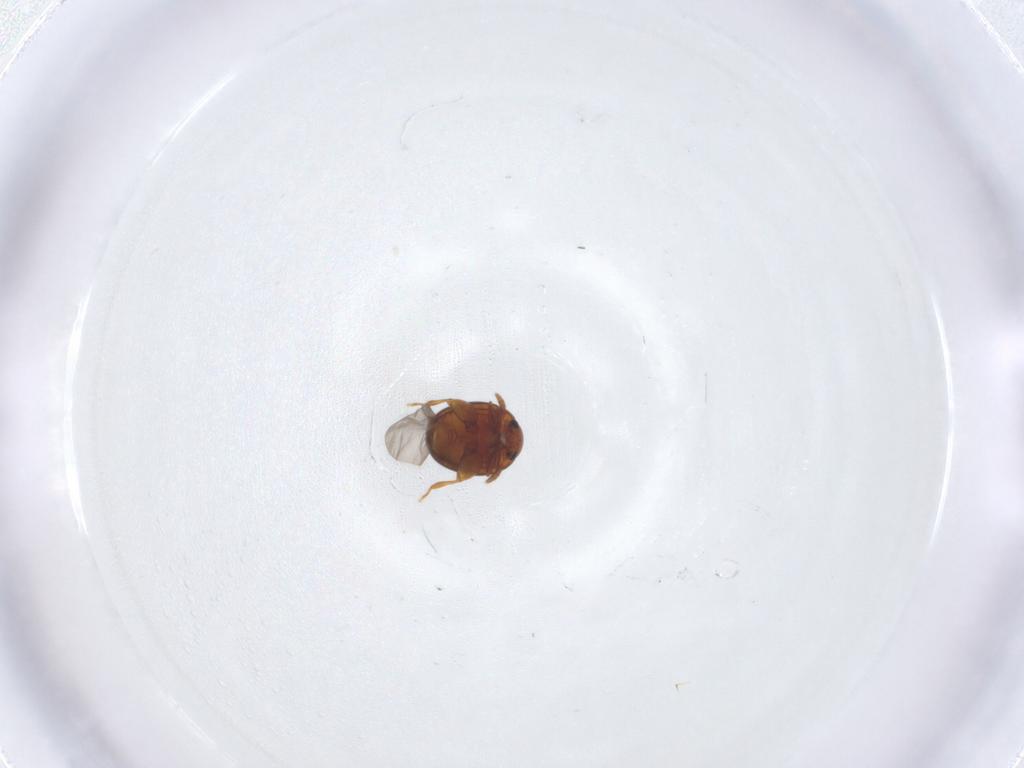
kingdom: Animalia
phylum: Arthropoda
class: Insecta
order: Coleoptera
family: Chrysomelidae
